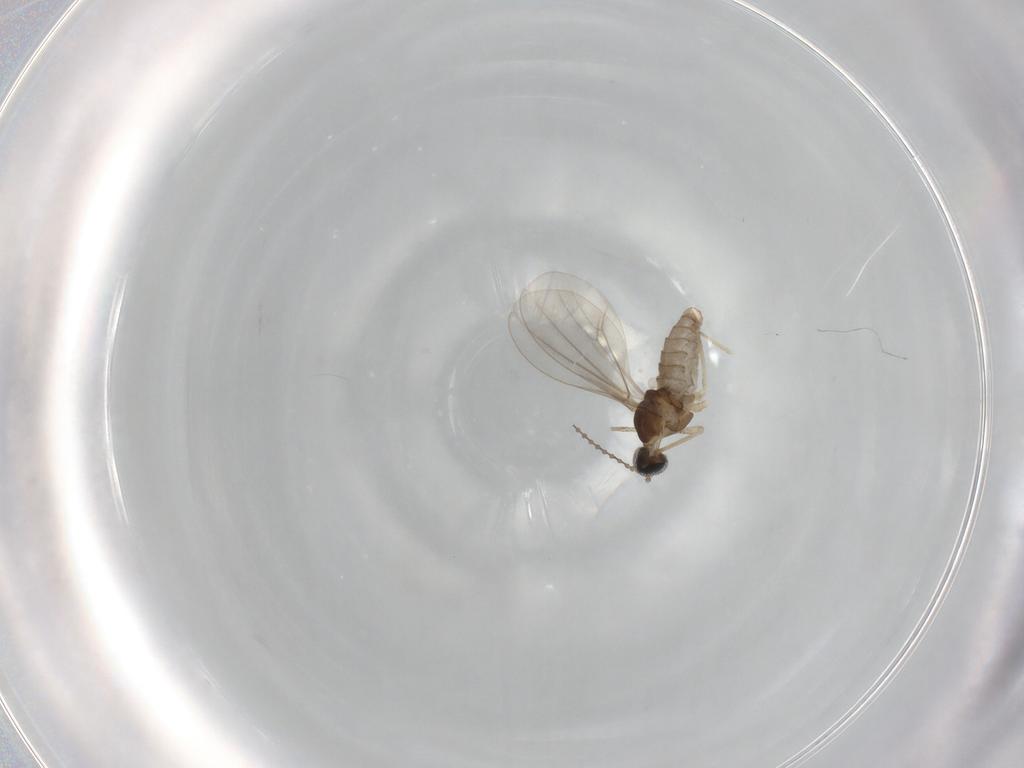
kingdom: Animalia
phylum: Arthropoda
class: Insecta
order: Diptera
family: Cecidomyiidae
